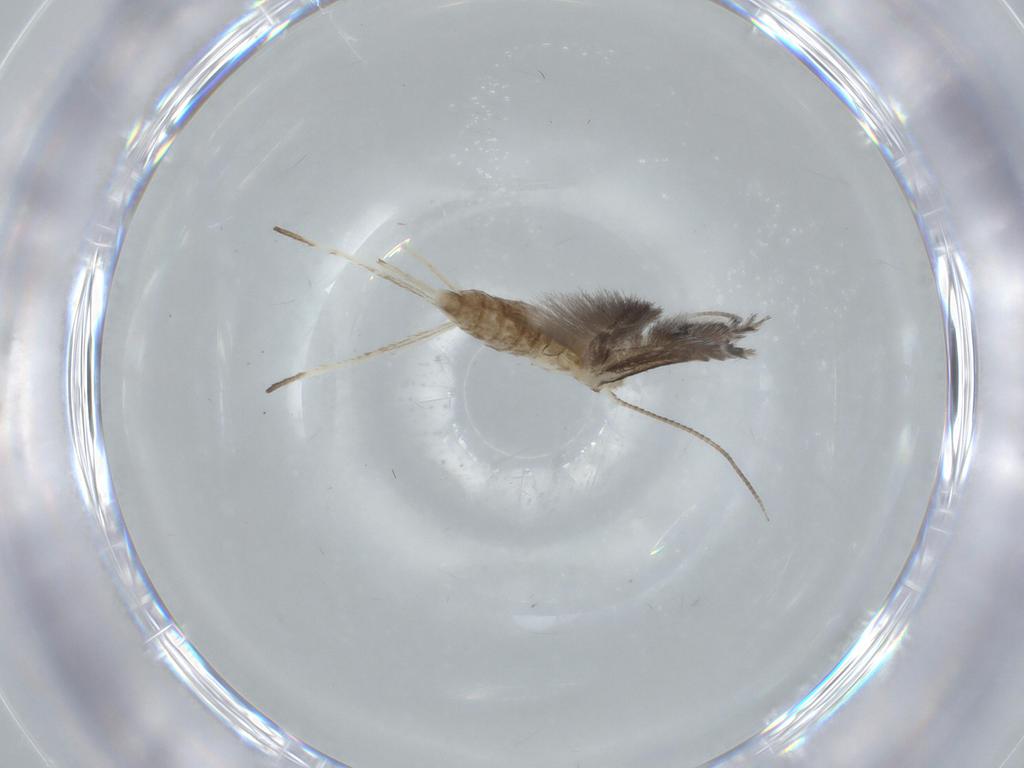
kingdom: Animalia
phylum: Arthropoda
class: Insecta
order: Lepidoptera
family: Gracillariidae
